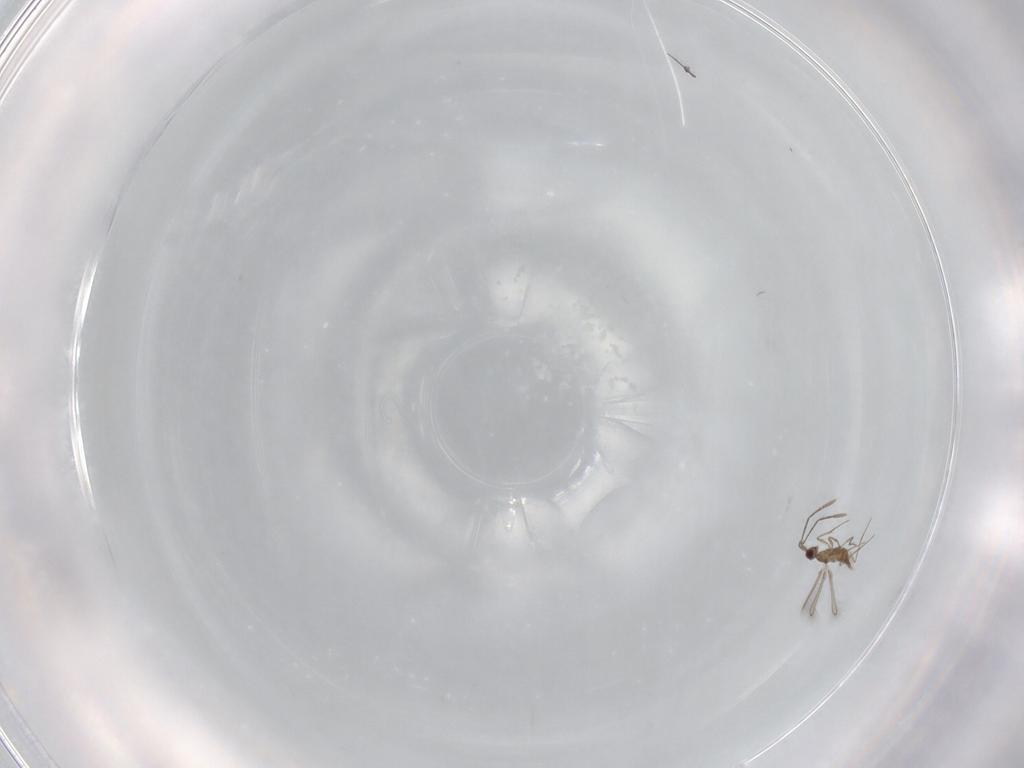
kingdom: Animalia
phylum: Arthropoda
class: Insecta
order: Hymenoptera
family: Mymaridae
